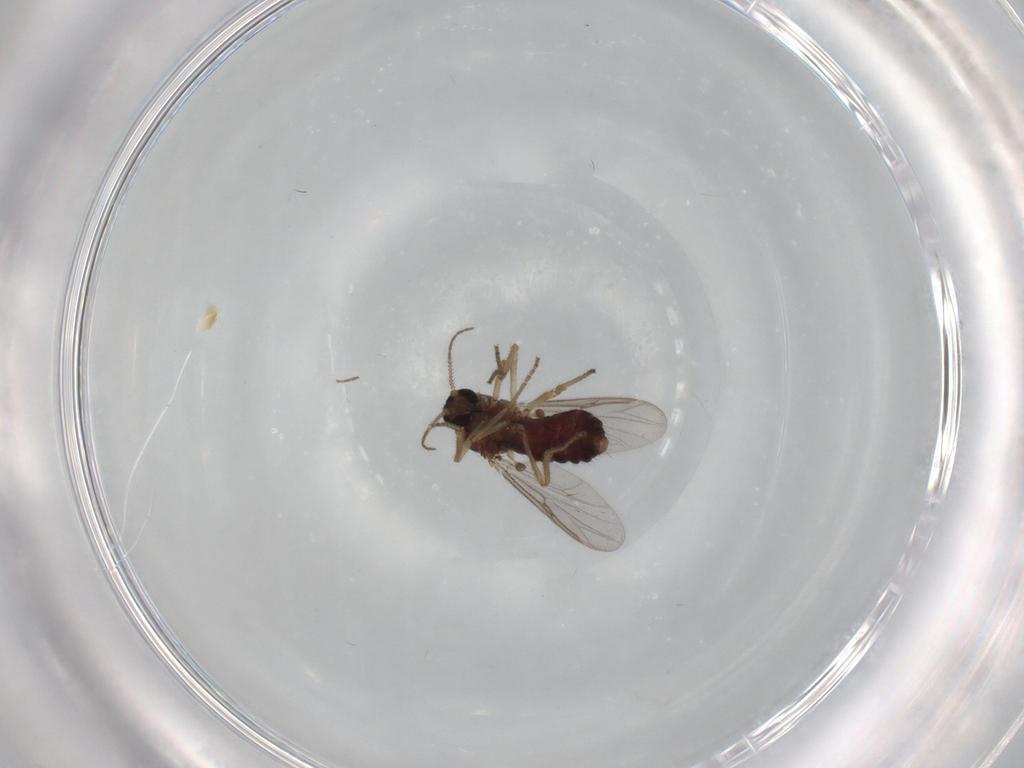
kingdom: Animalia
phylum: Arthropoda
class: Insecta
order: Diptera
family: Ceratopogonidae
